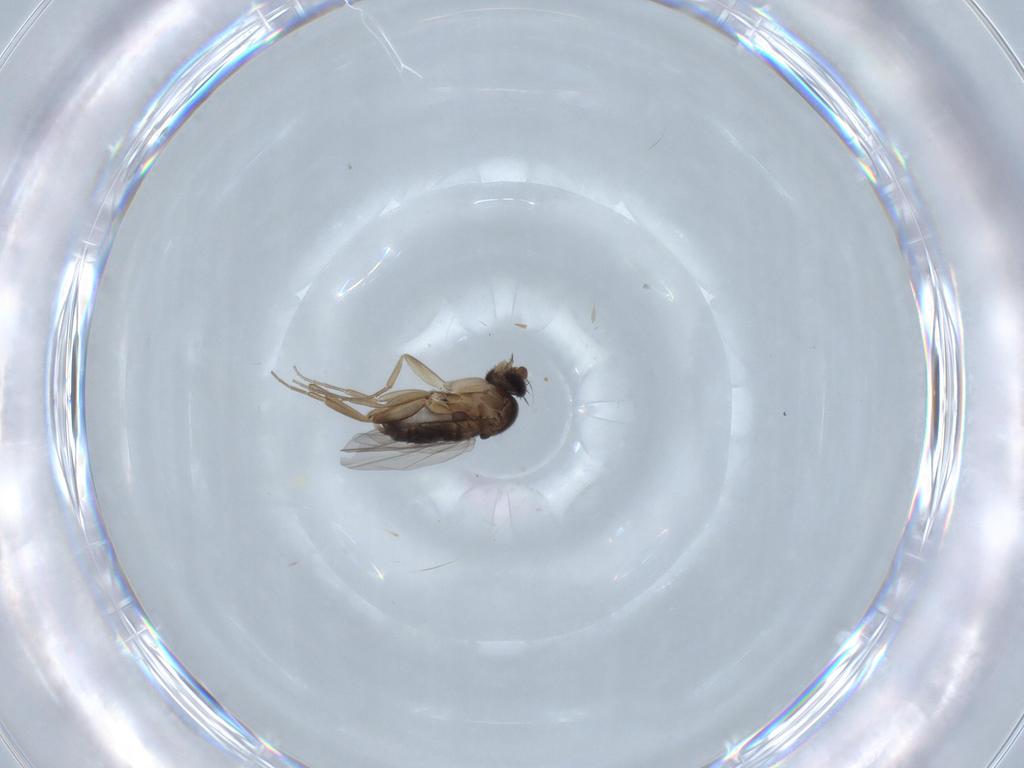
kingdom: Animalia
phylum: Arthropoda
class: Insecta
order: Diptera
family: Phoridae
